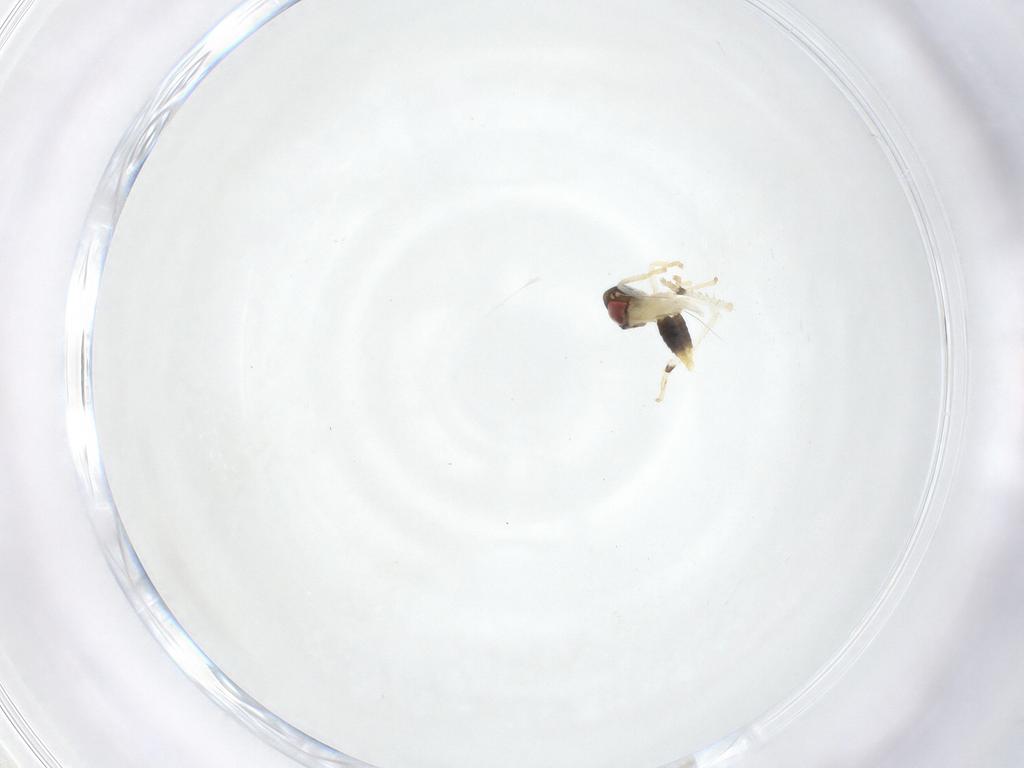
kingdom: Animalia
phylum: Arthropoda
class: Insecta
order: Hemiptera
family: Cicadellidae
